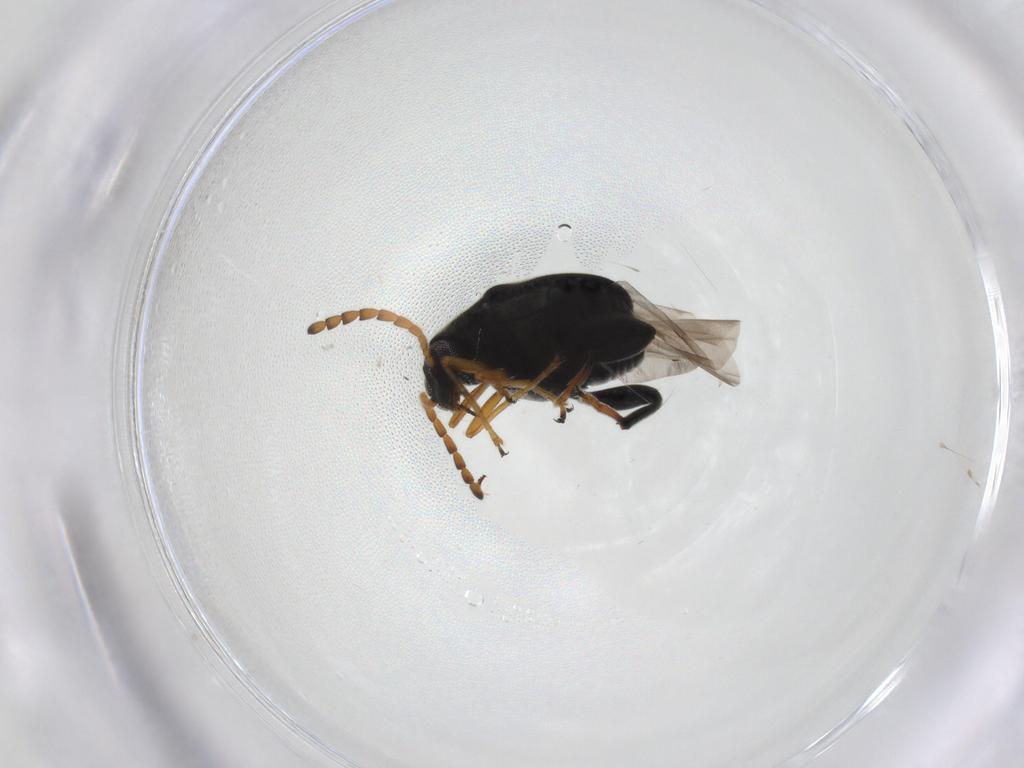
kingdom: Animalia
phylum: Arthropoda
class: Insecta
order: Coleoptera
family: Chrysomelidae
